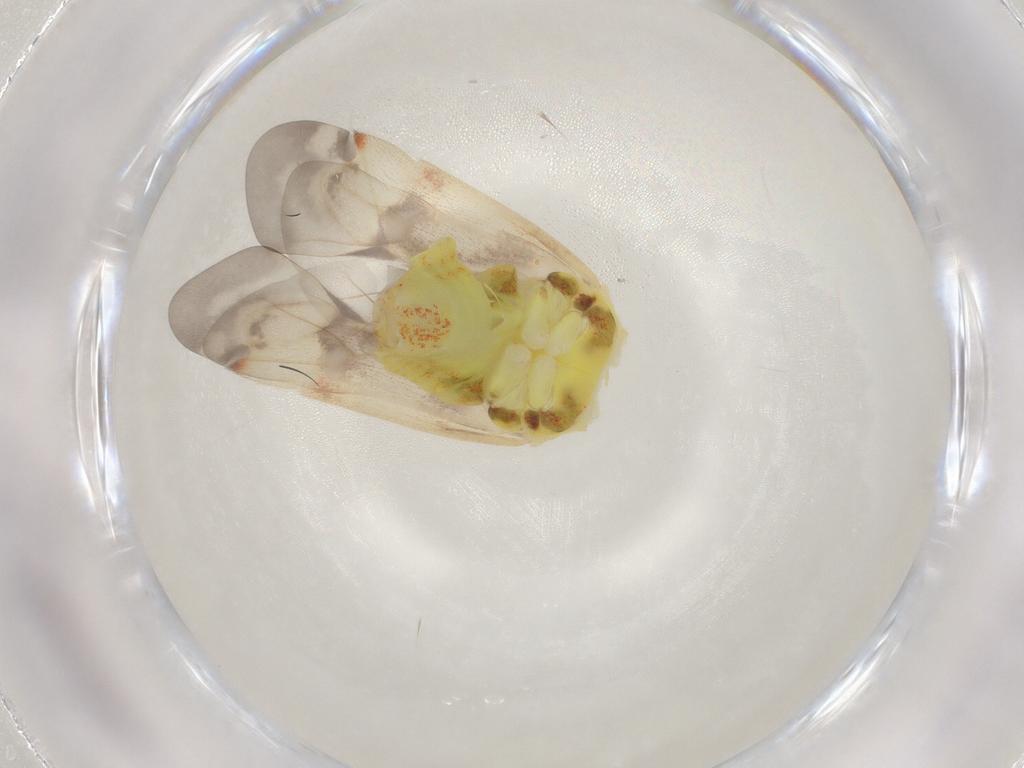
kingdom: Animalia
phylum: Arthropoda
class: Insecta
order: Hemiptera
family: Miridae
